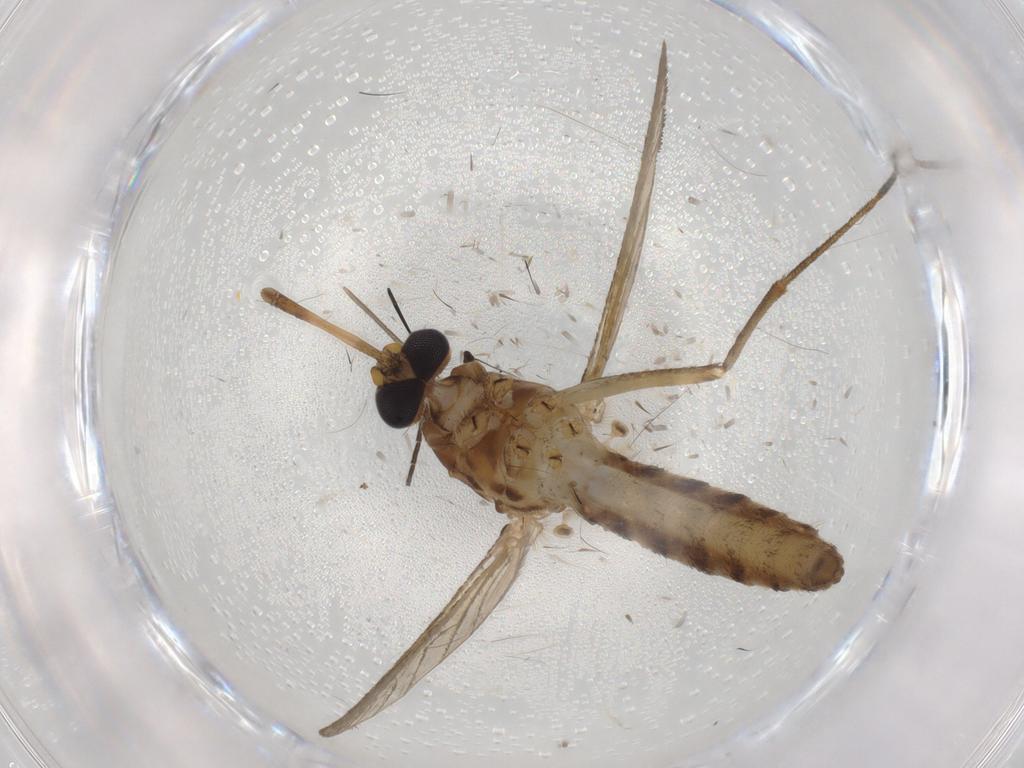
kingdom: Animalia
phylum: Arthropoda
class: Insecta
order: Diptera
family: Cecidomyiidae
